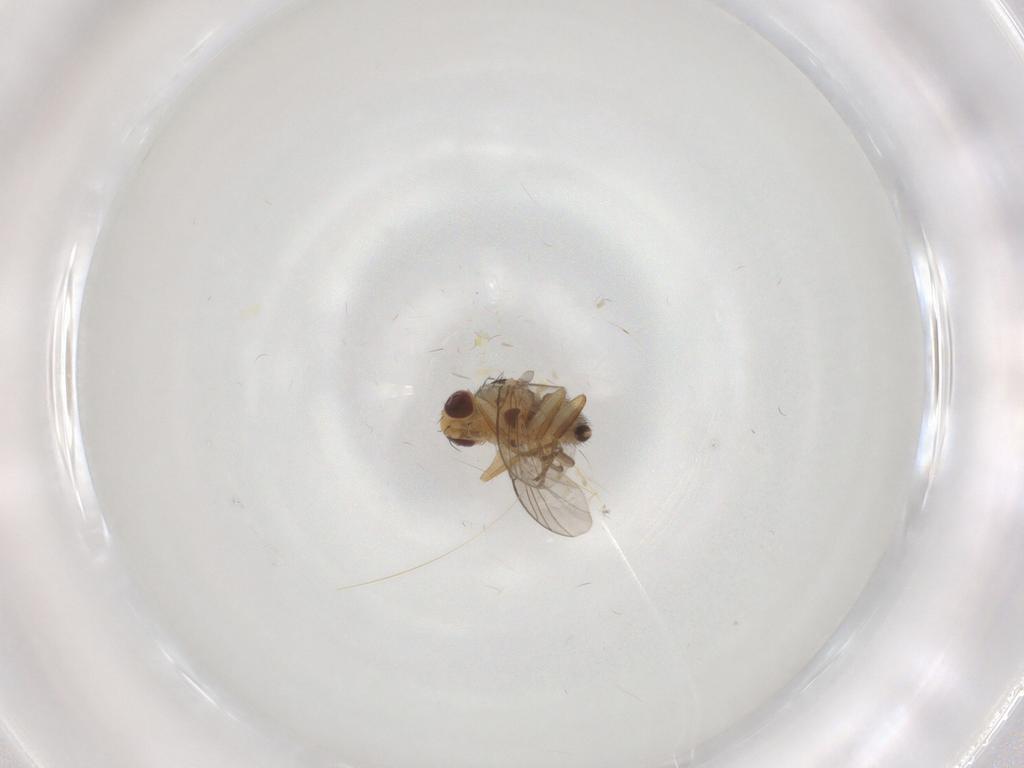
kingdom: Animalia
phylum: Arthropoda
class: Insecta
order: Diptera
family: Agromyzidae
